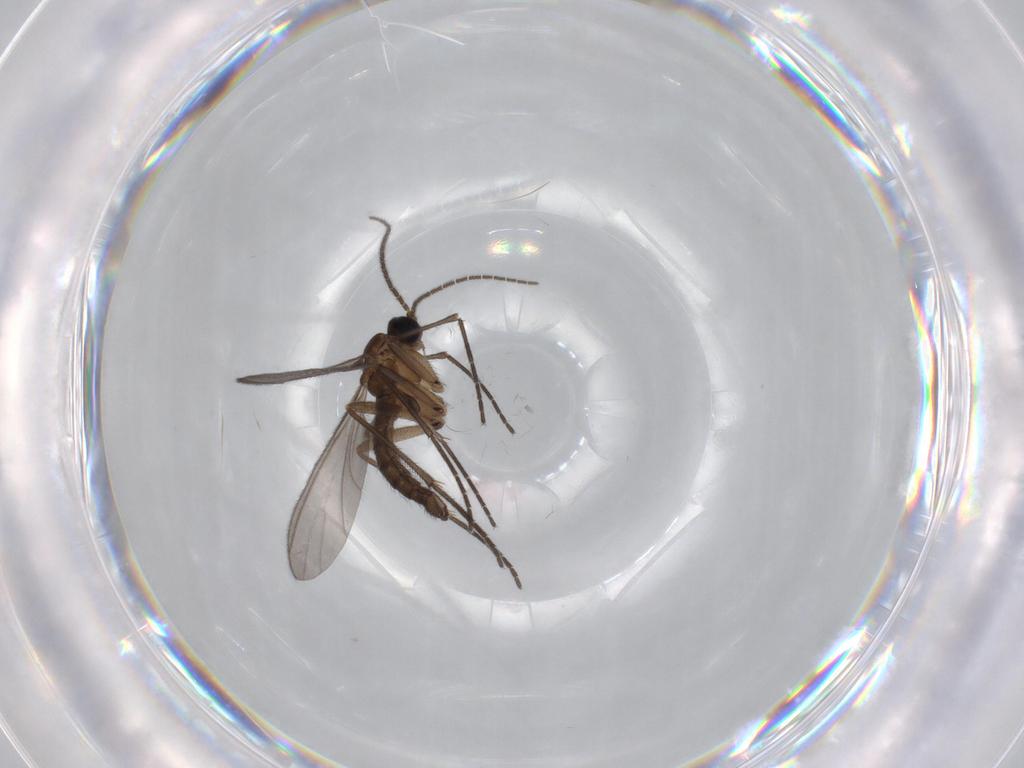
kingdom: Animalia
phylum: Arthropoda
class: Insecta
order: Diptera
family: Sciaridae
